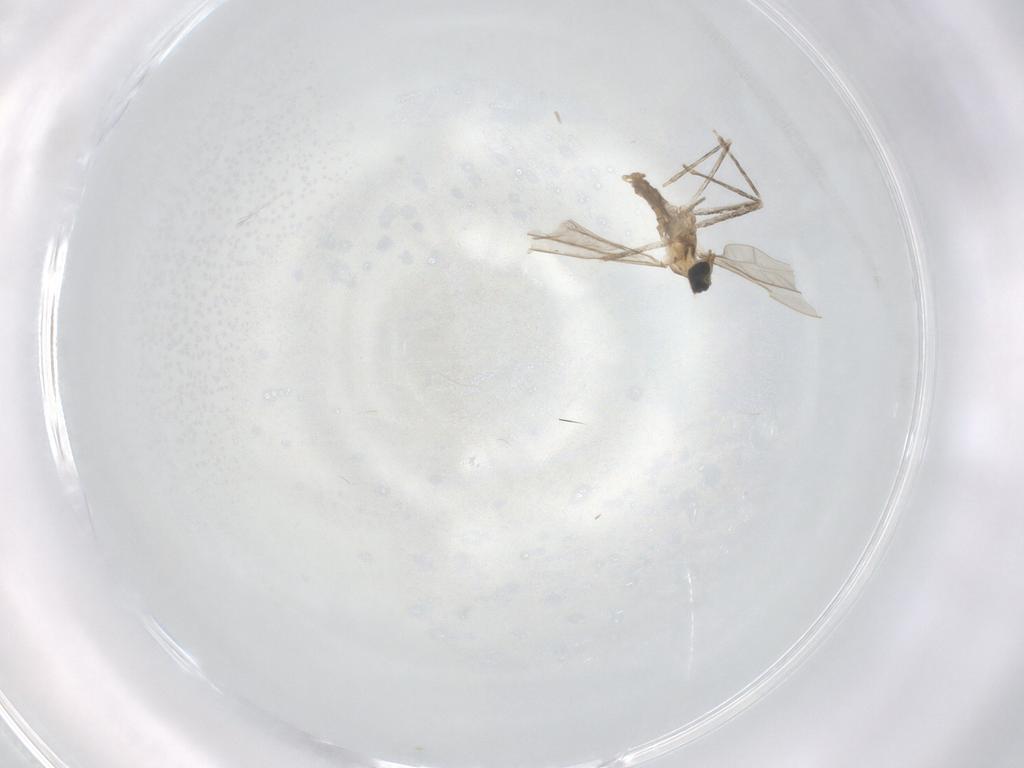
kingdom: Animalia
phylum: Arthropoda
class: Insecta
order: Diptera
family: Cecidomyiidae
